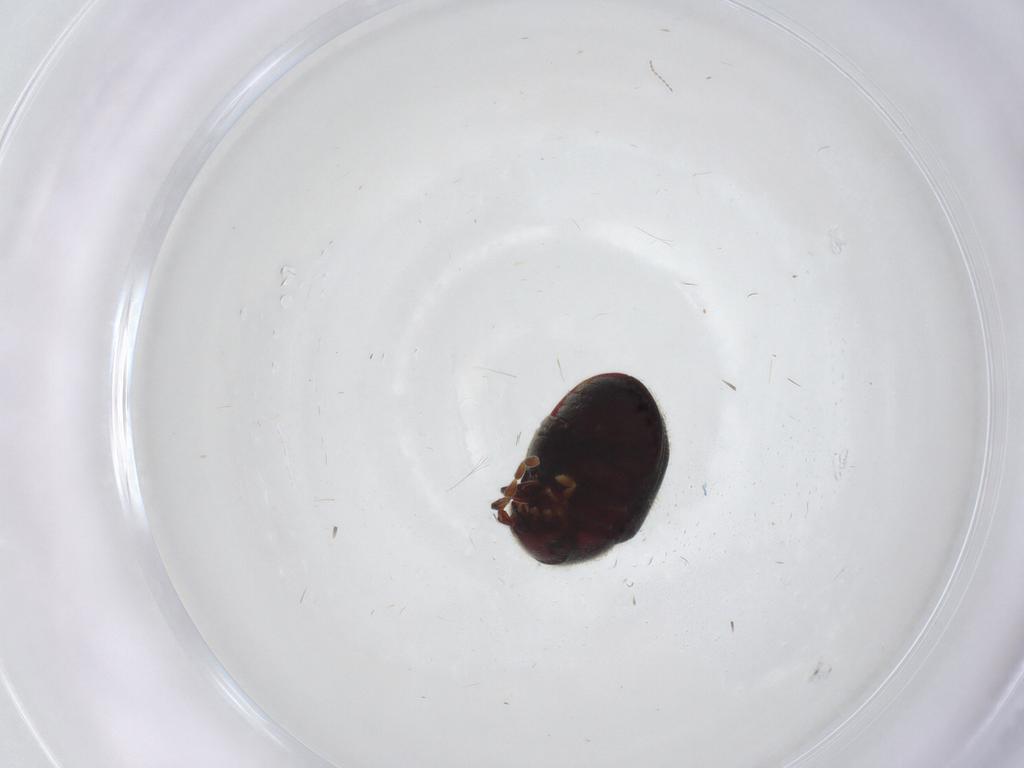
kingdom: Animalia
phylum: Arthropoda
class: Insecta
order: Coleoptera
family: Ptinidae
